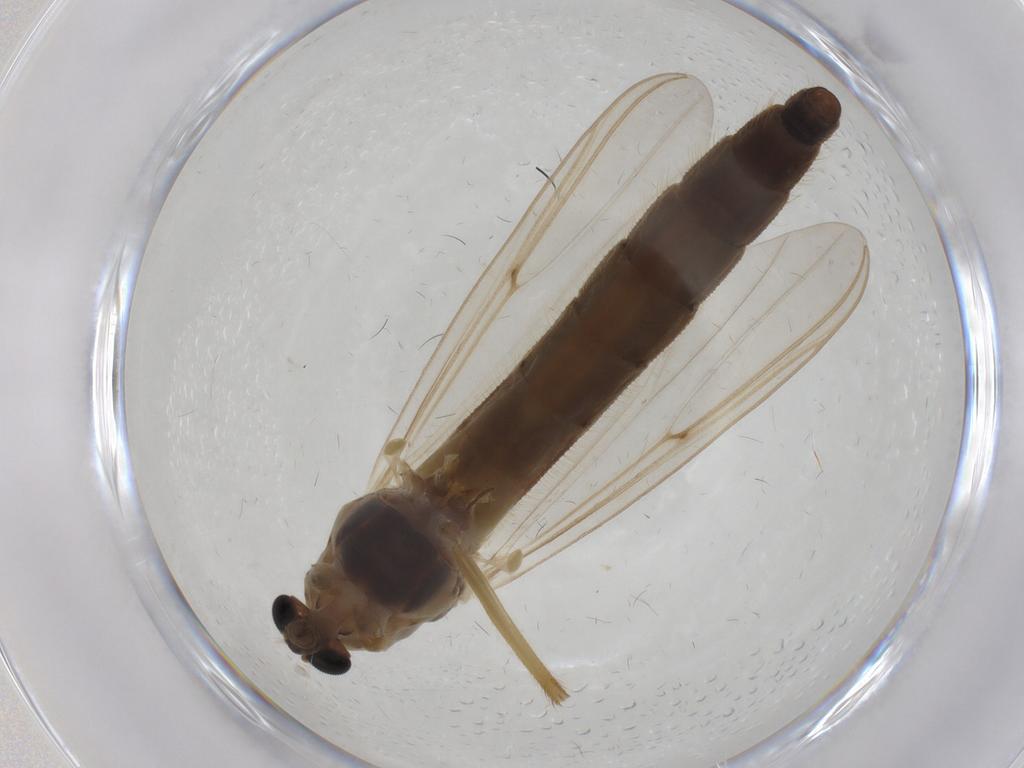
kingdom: Animalia
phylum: Arthropoda
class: Insecta
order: Diptera
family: Chironomidae
